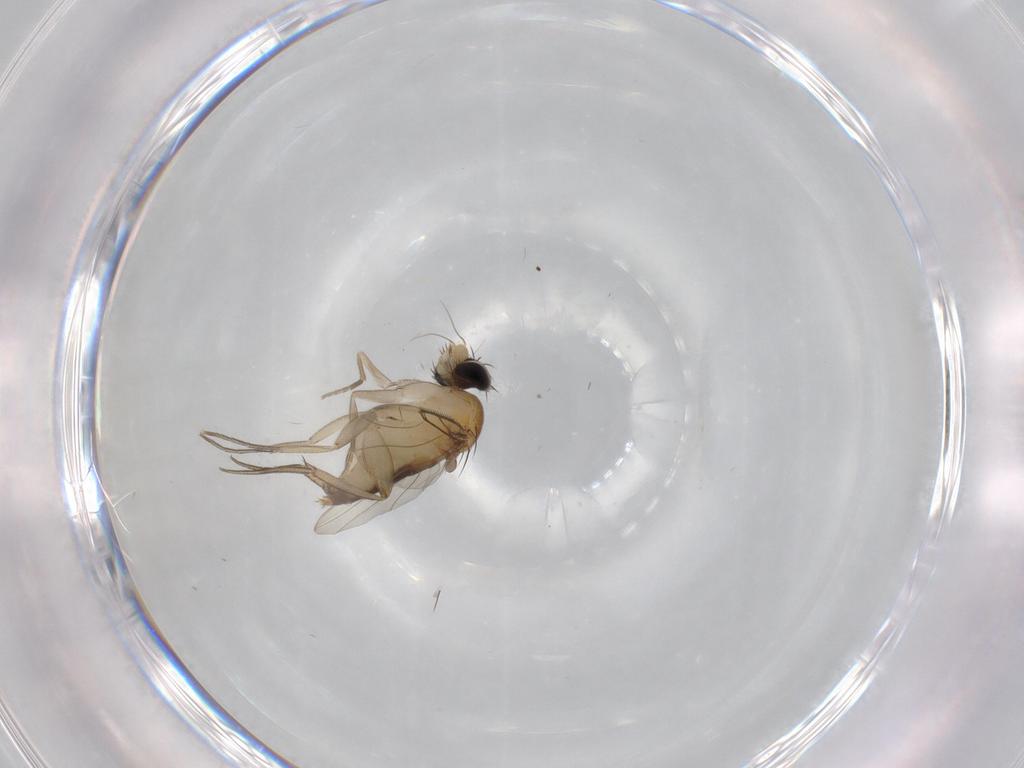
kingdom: Animalia
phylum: Arthropoda
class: Insecta
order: Diptera
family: Phoridae
